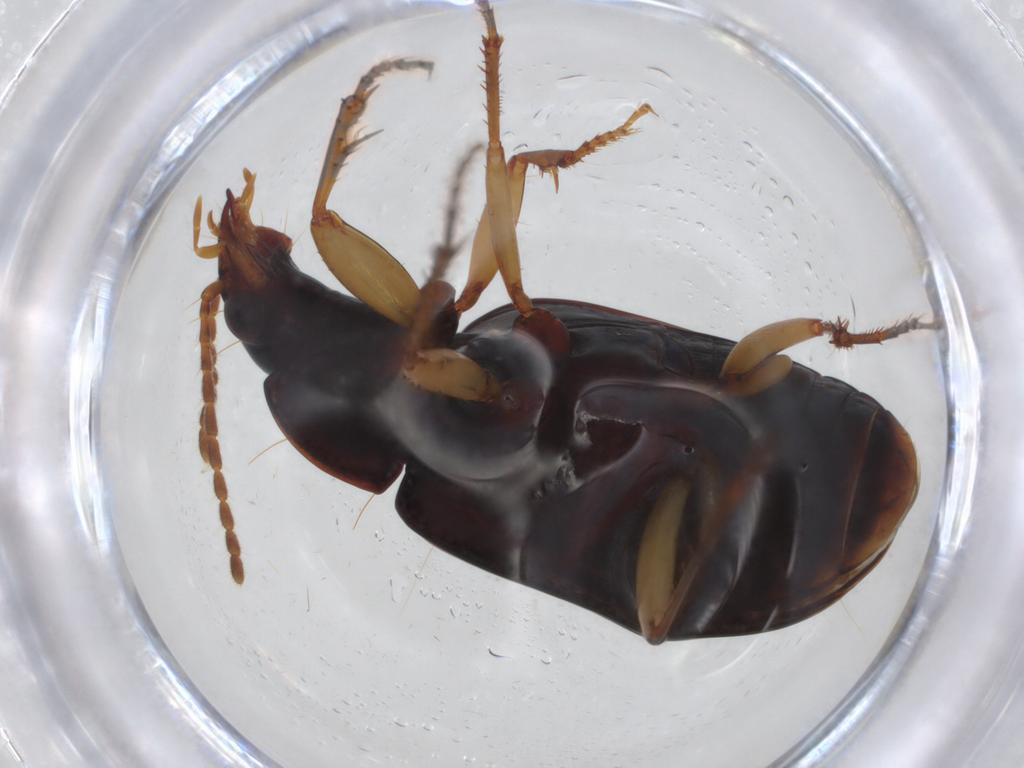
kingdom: Animalia
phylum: Arthropoda
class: Insecta
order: Coleoptera
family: Carabidae
